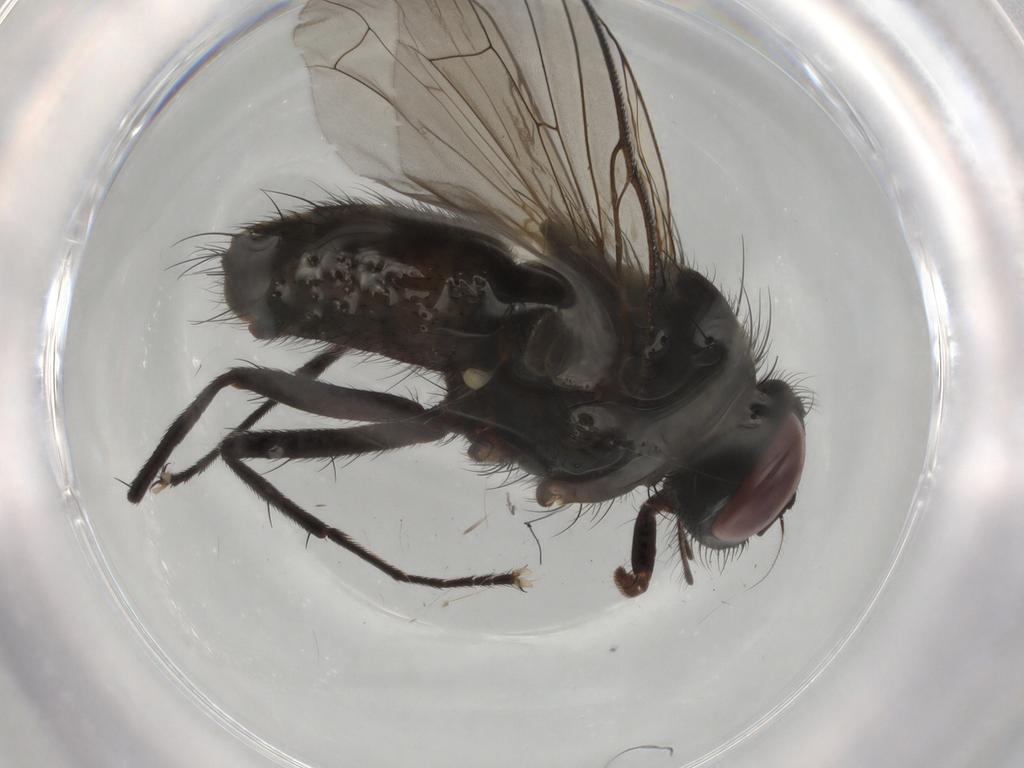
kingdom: Animalia
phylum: Arthropoda
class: Insecta
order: Diptera
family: Muscidae
